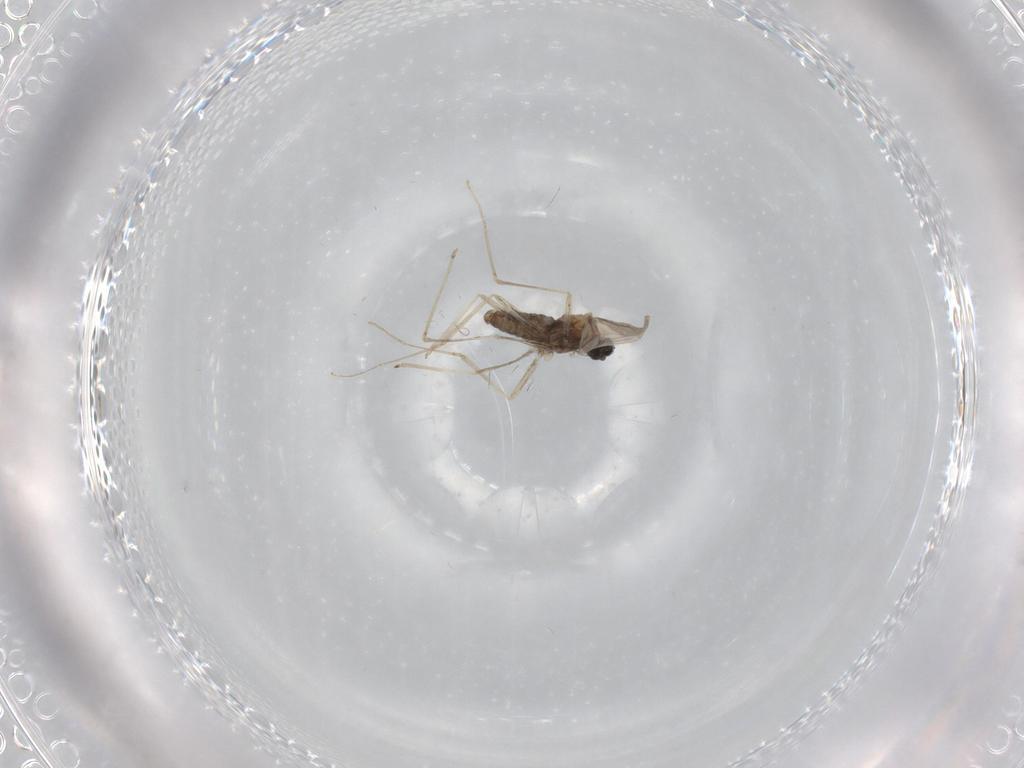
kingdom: Animalia
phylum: Arthropoda
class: Insecta
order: Diptera
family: Cecidomyiidae
